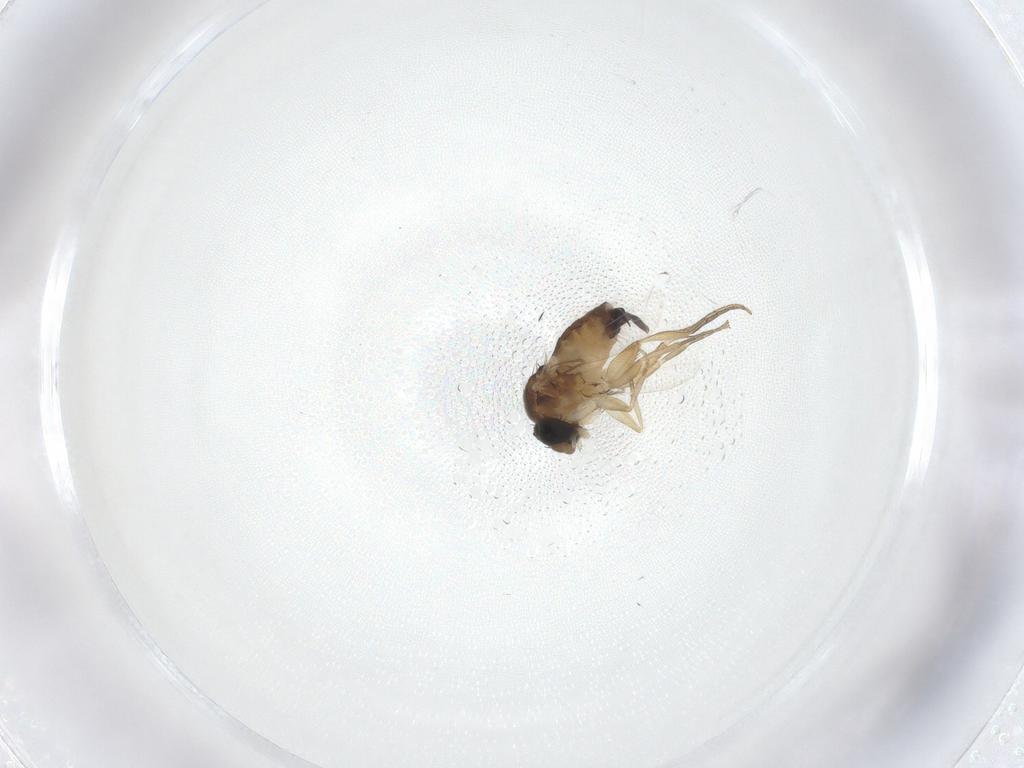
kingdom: Animalia
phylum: Arthropoda
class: Insecta
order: Diptera
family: Phoridae
